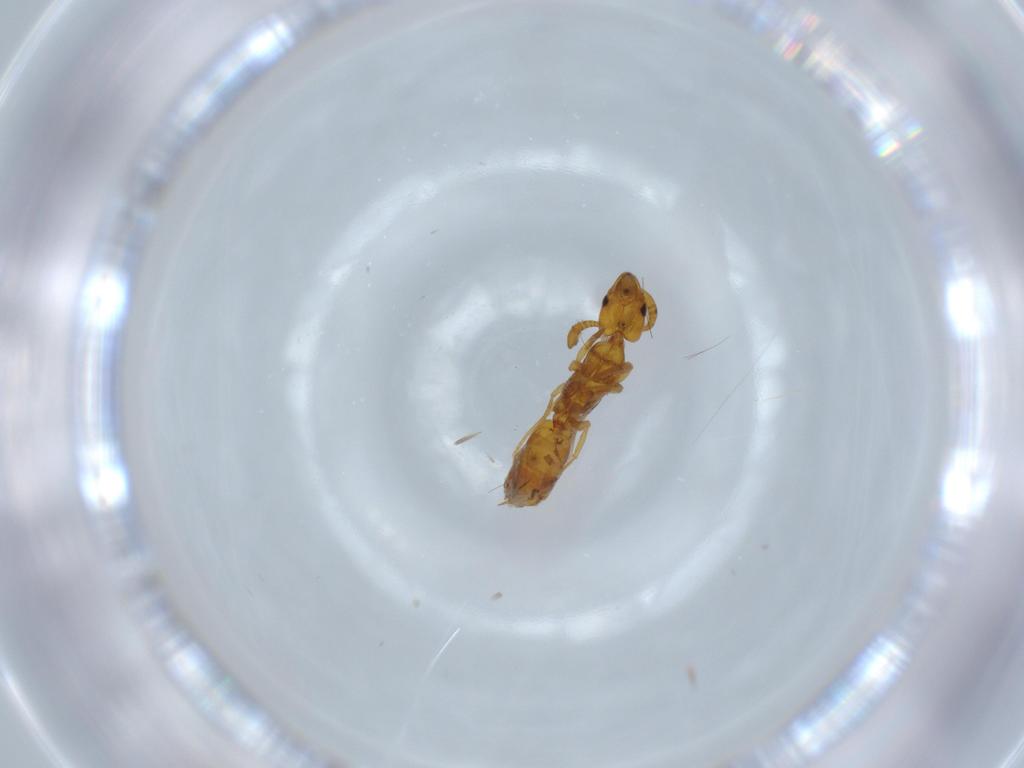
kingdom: Animalia
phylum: Arthropoda
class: Insecta
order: Hymenoptera
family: Formicidae
